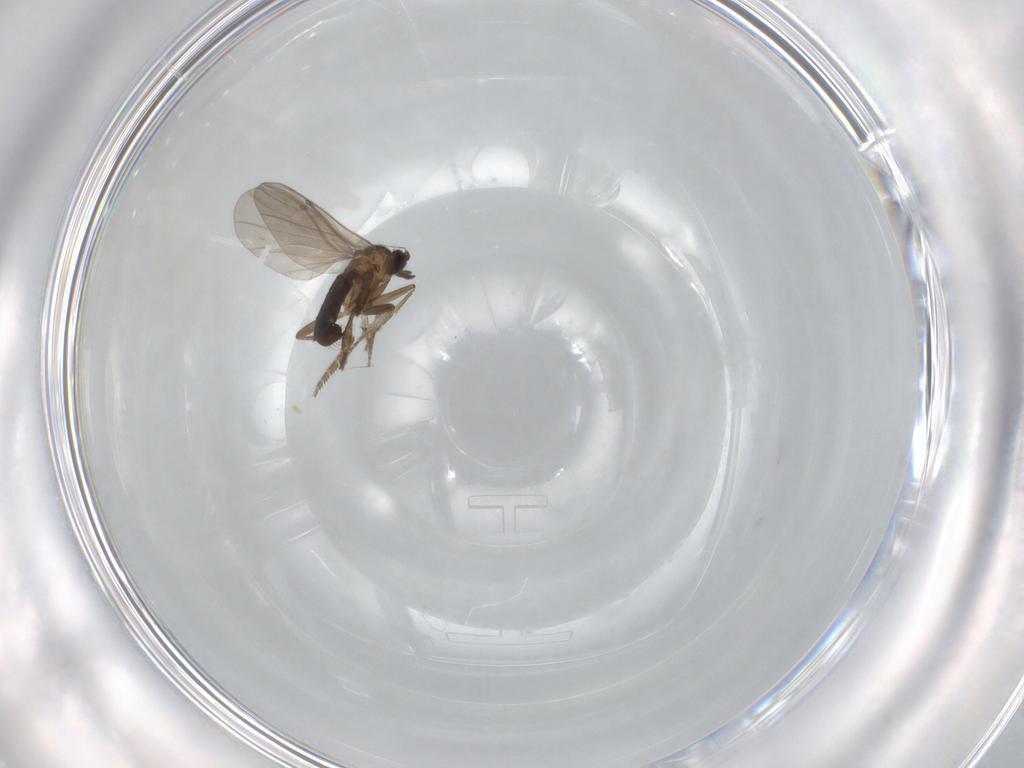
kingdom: Animalia
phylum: Arthropoda
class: Insecta
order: Diptera
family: Phoridae
